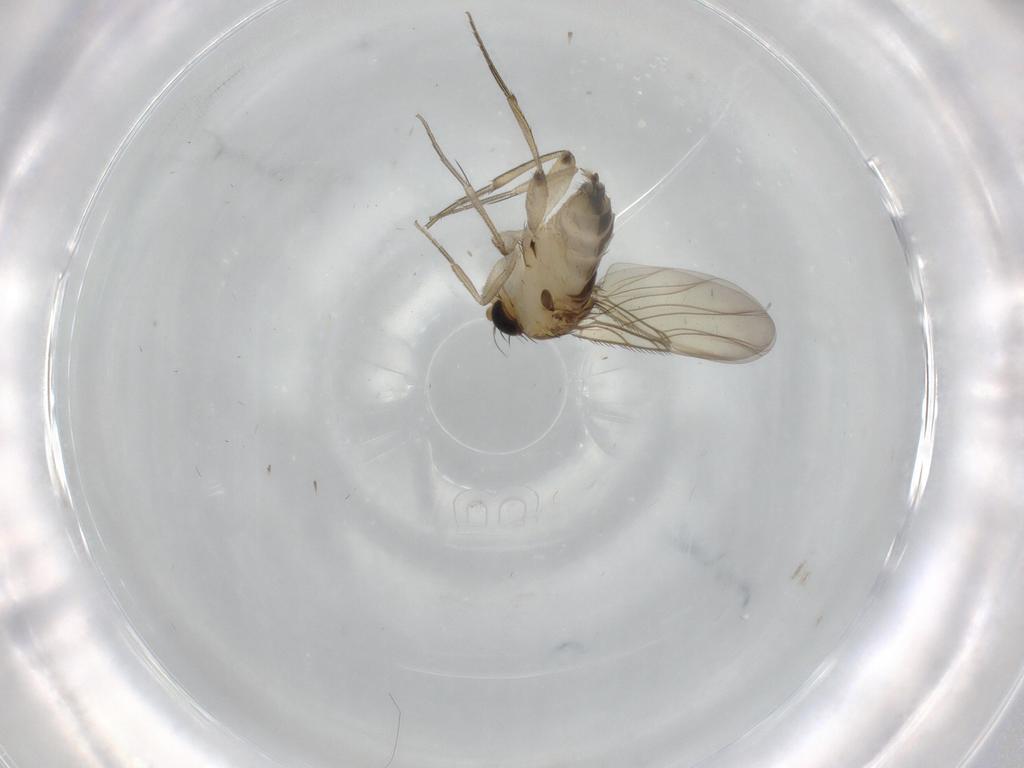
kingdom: Animalia
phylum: Arthropoda
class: Insecta
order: Diptera
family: Phoridae
